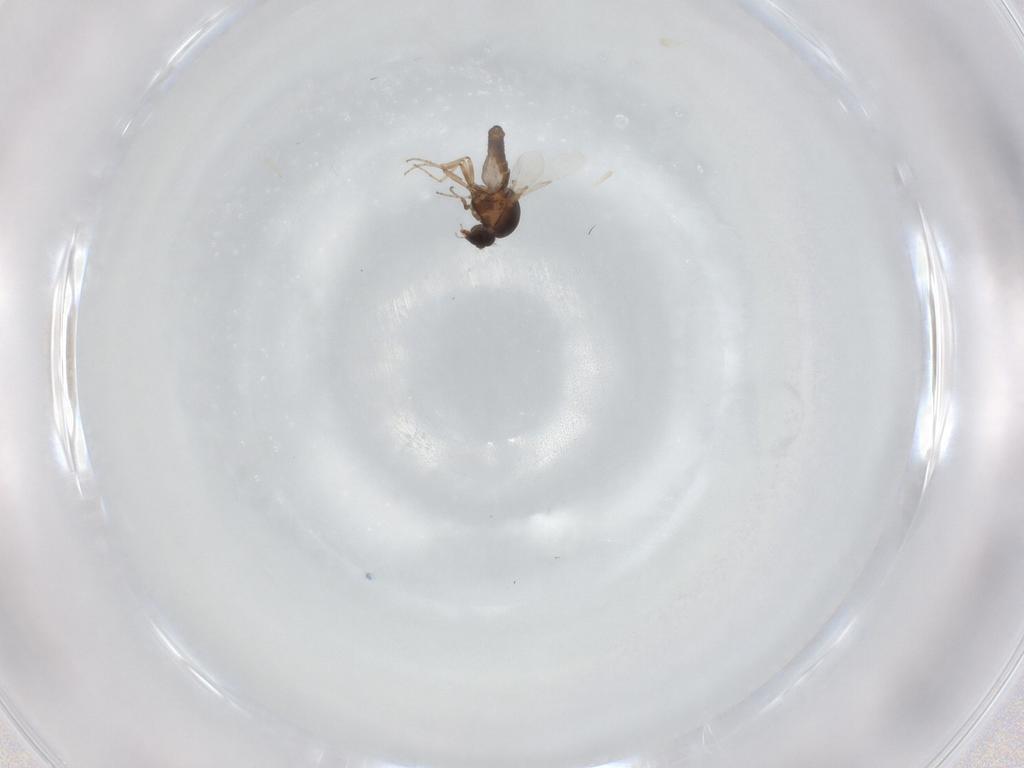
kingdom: Animalia
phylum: Arthropoda
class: Insecta
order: Diptera
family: Ceratopogonidae
